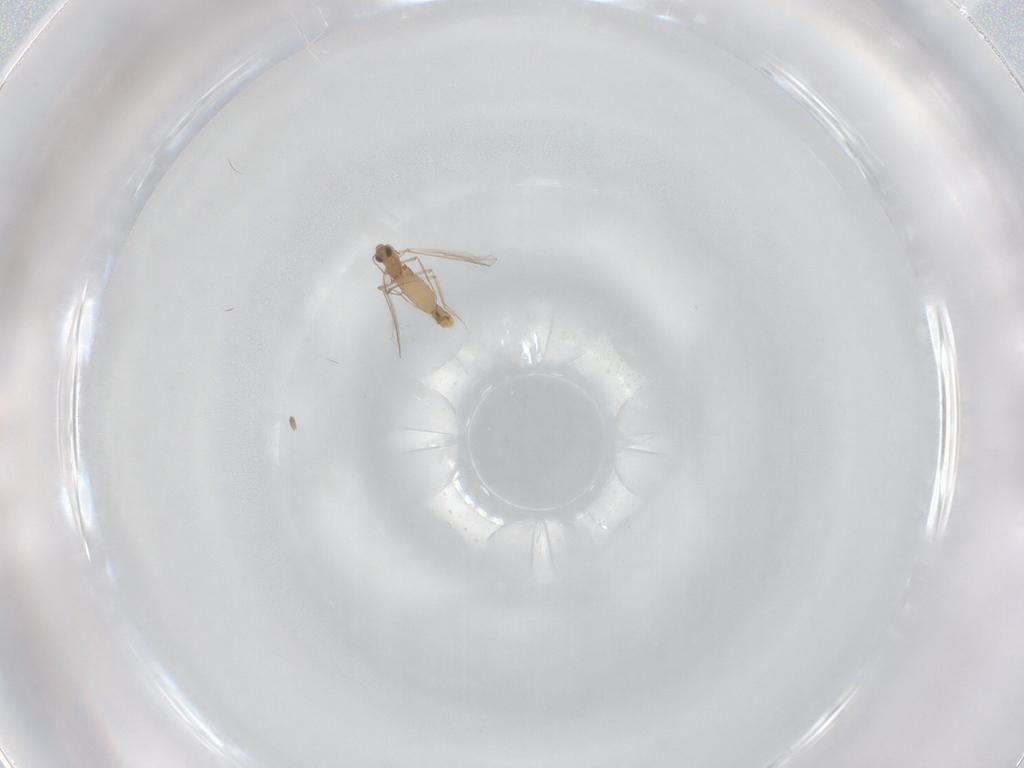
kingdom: Animalia
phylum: Arthropoda
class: Insecta
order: Diptera
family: Chironomidae
